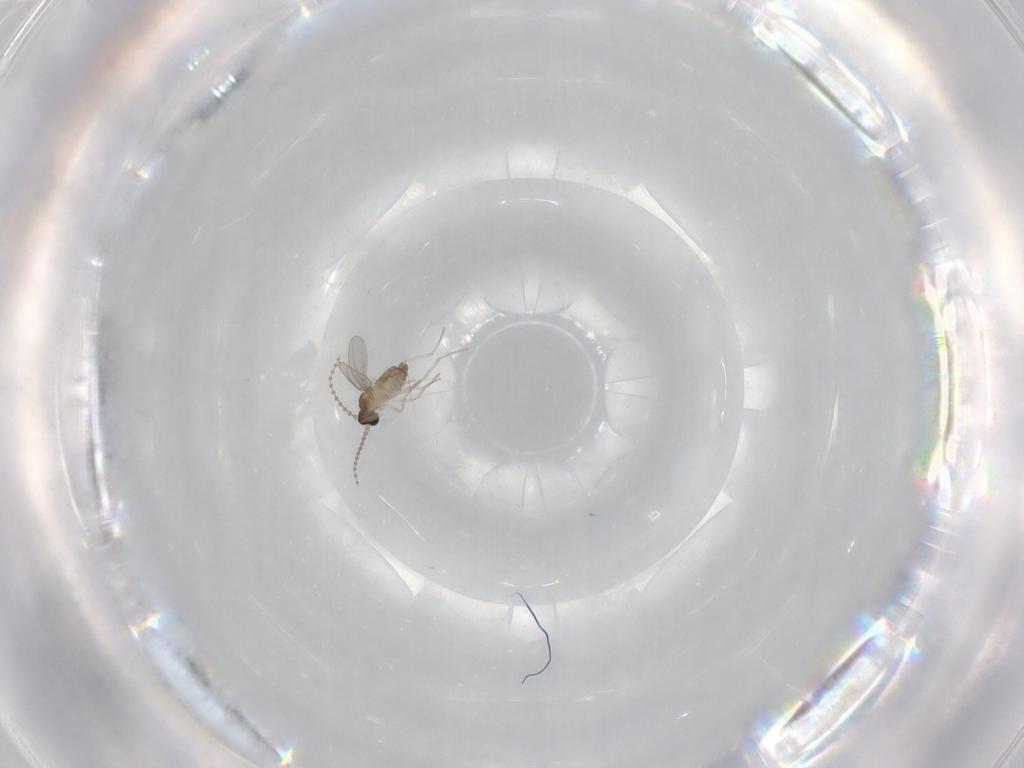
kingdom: Animalia
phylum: Arthropoda
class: Insecta
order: Diptera
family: Cecidomyiidae
